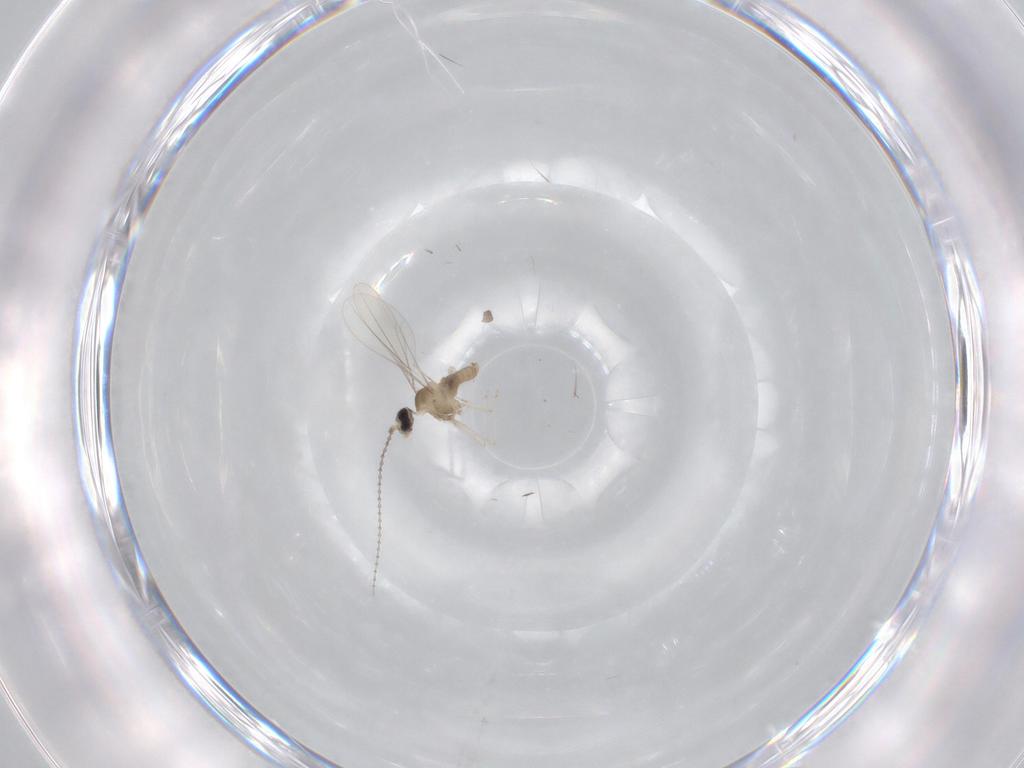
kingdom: Animalia
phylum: Arthropoda
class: Insecta
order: Diptera
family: Cecidomyiidae
